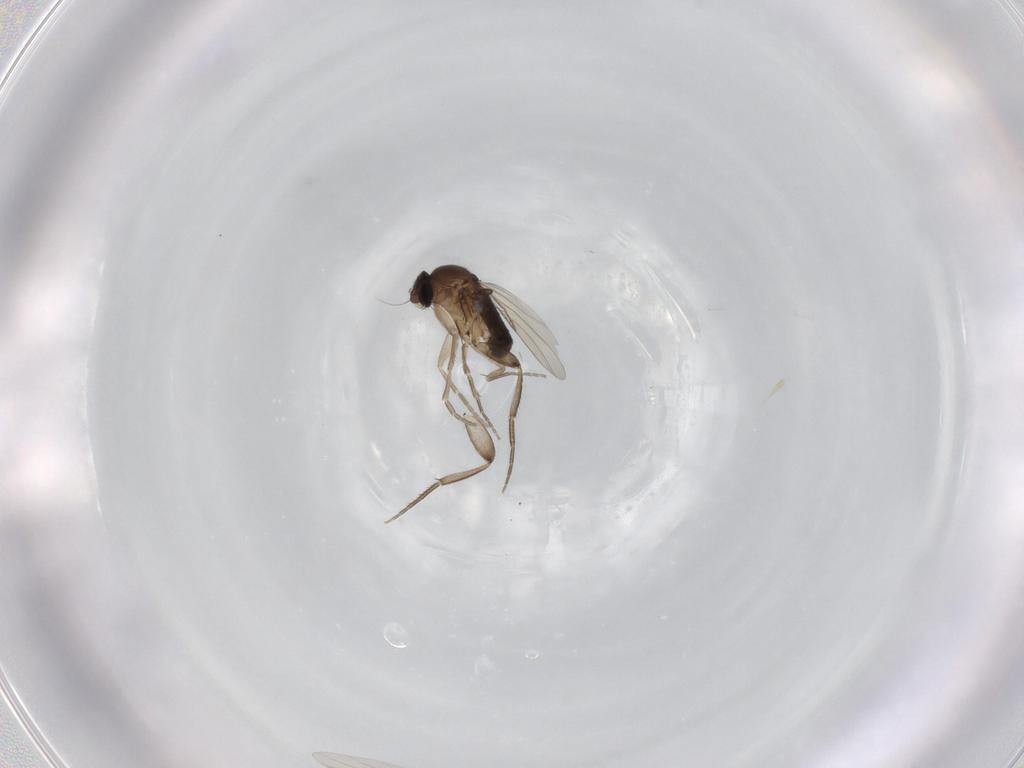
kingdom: Animalia
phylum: Arthropoda
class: Insecta
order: Diptera
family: Phoridae
